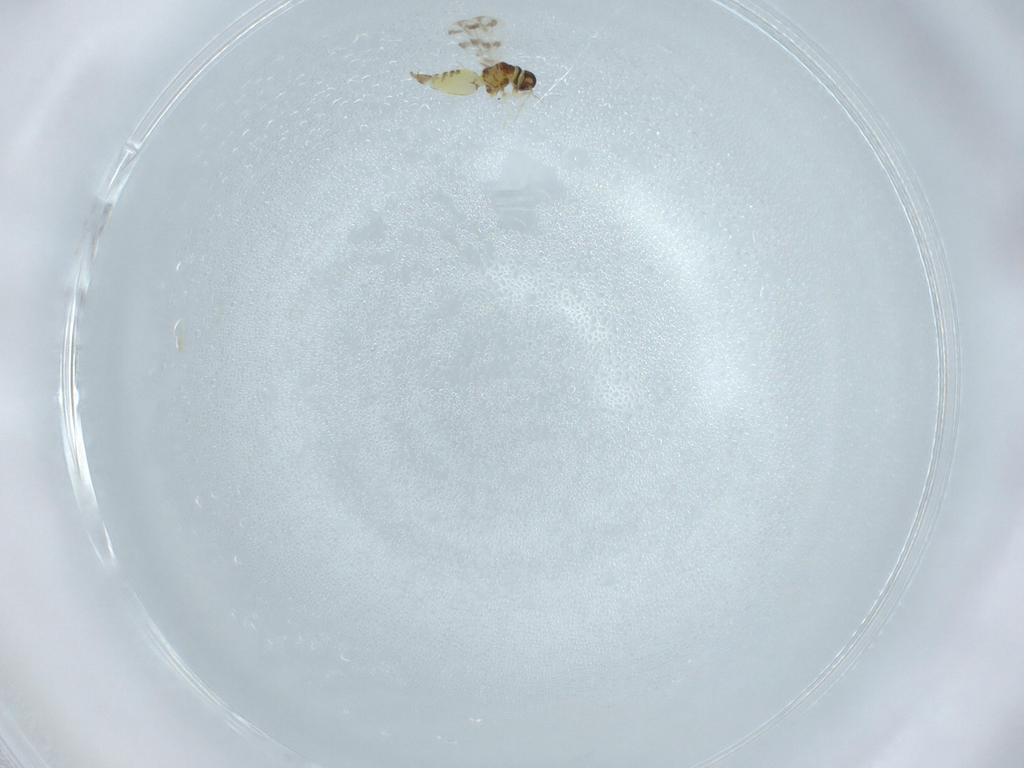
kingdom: Animalia
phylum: Arthropoda
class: Insecta
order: Hemiptera
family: Aleyrodidae
